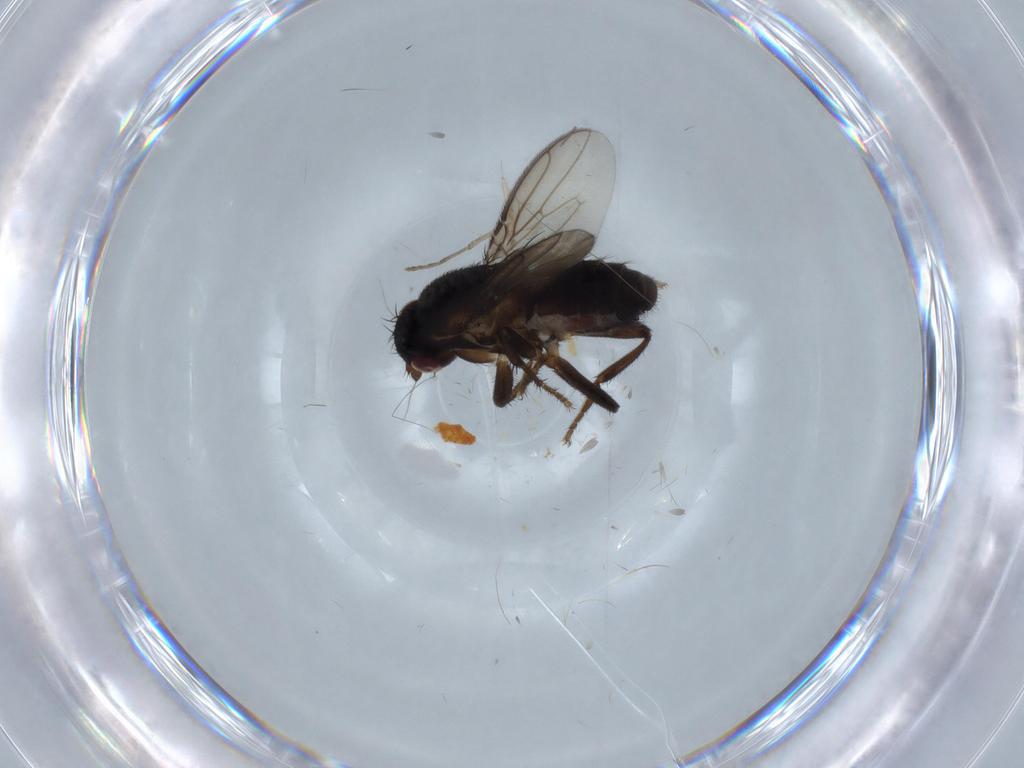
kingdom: Animalia
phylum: Arthropoda
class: Insecta
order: Diptera
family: Sphaeroceridae
